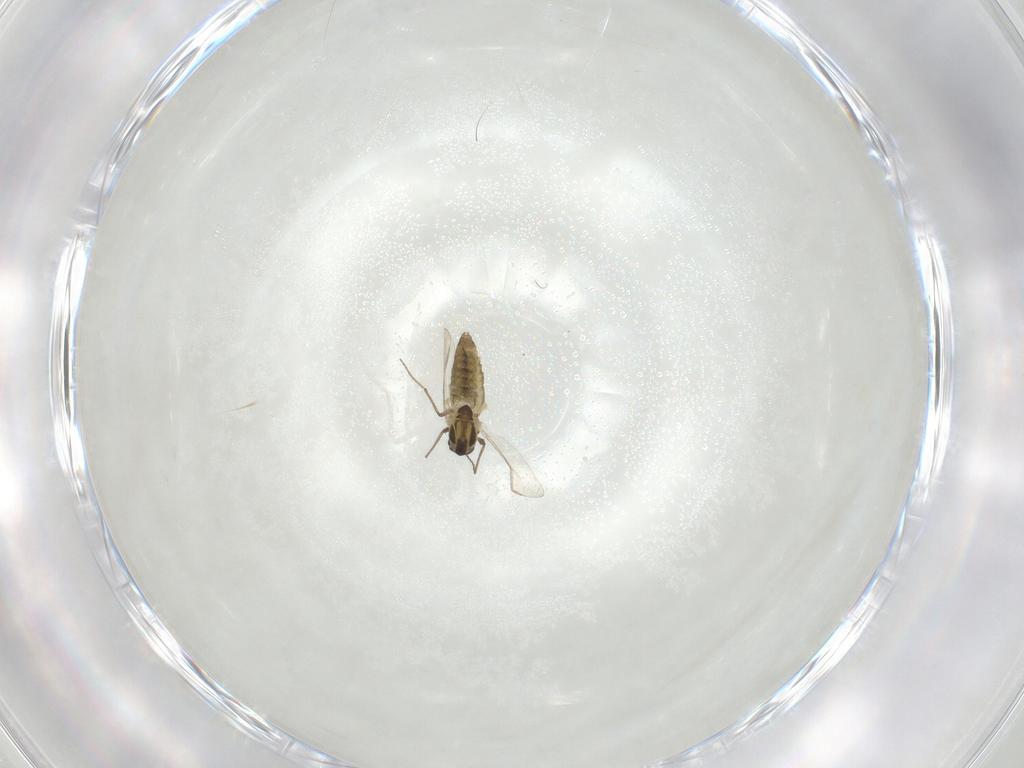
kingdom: Animalia
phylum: Arthropoda
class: Insecta
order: Diptera
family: Chironomidae
